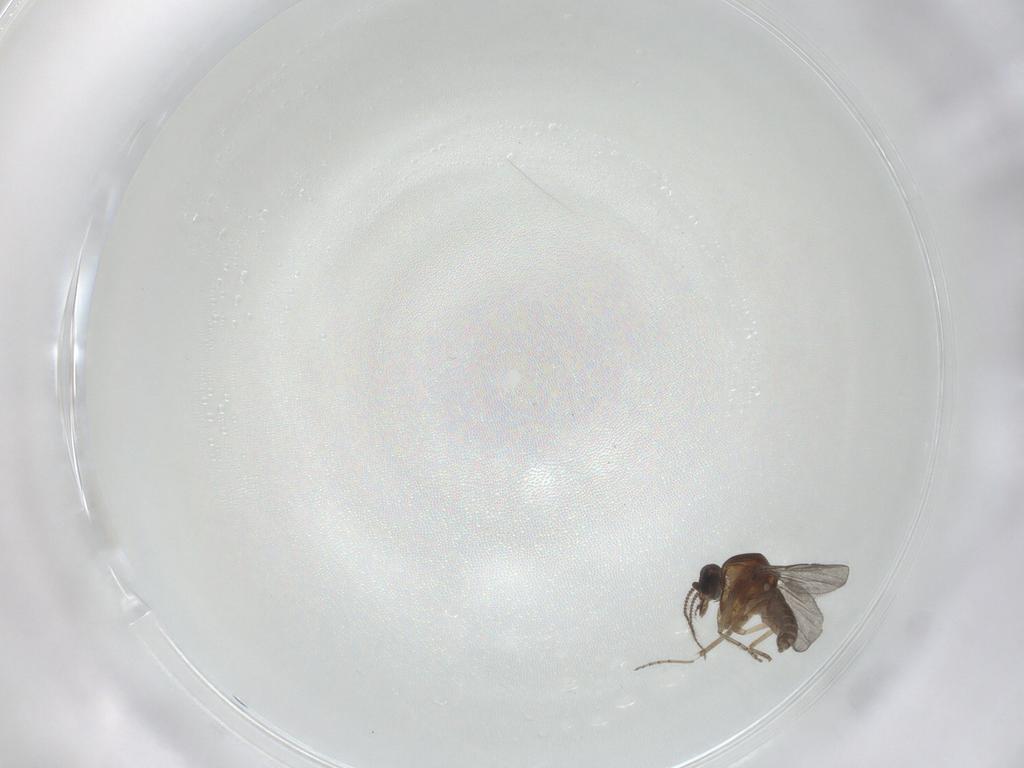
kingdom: Animalia
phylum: Arthropoda
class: Insecta
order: Diptera
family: Ceratopogonidae
